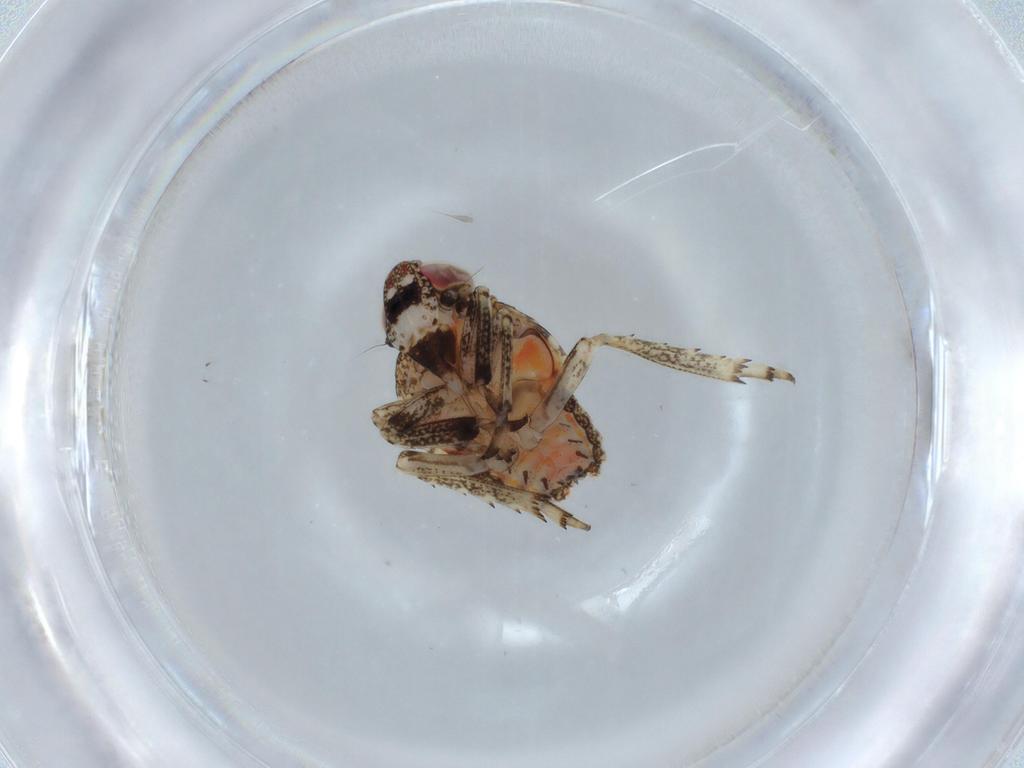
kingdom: Animalia
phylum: Arthropoda
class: Insecta
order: Hemiptera
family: Issidae
